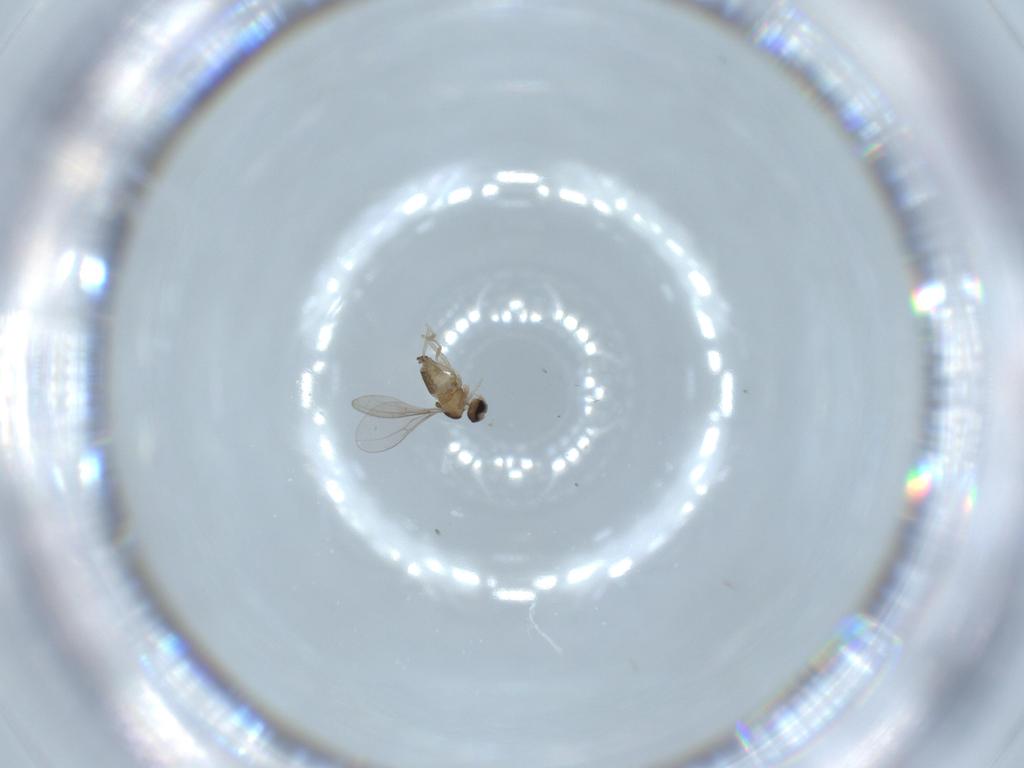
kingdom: Animalia
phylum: Arthropoda
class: Insecta
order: Diptera
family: Cecidomyiidae
